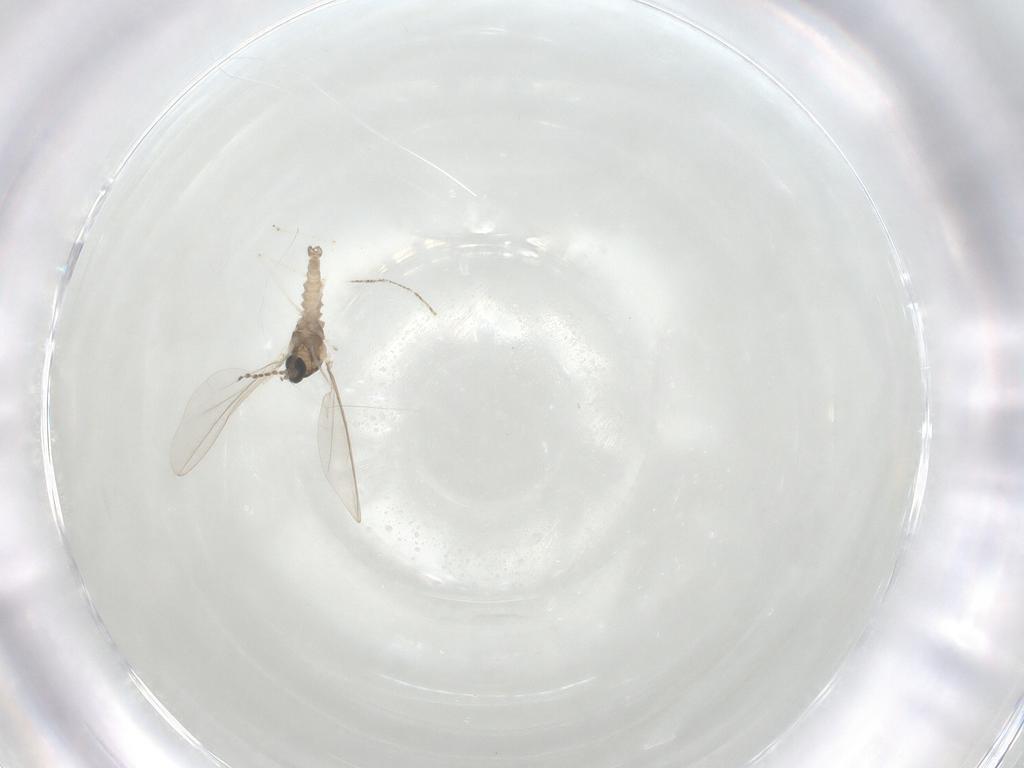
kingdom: Animalia
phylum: Arthropoda
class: Insecta
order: Diptera
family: Cecidomyiidae
